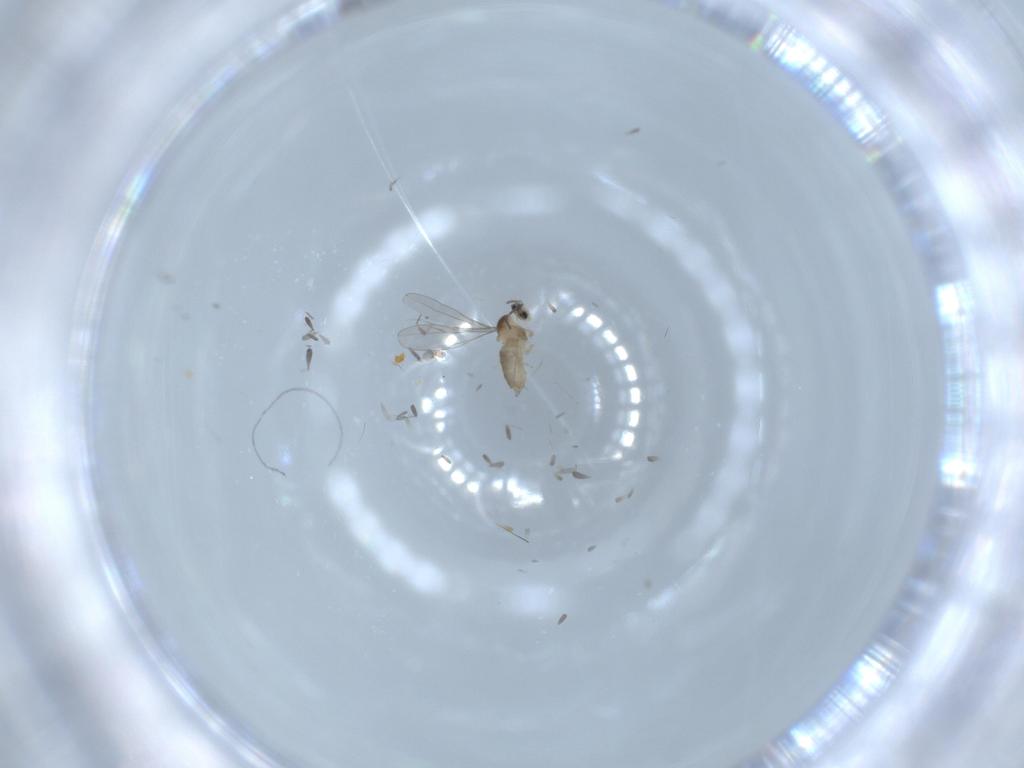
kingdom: Animalia
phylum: Arthropoda
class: Insecta
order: Diptera
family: Cecidomyiidae
